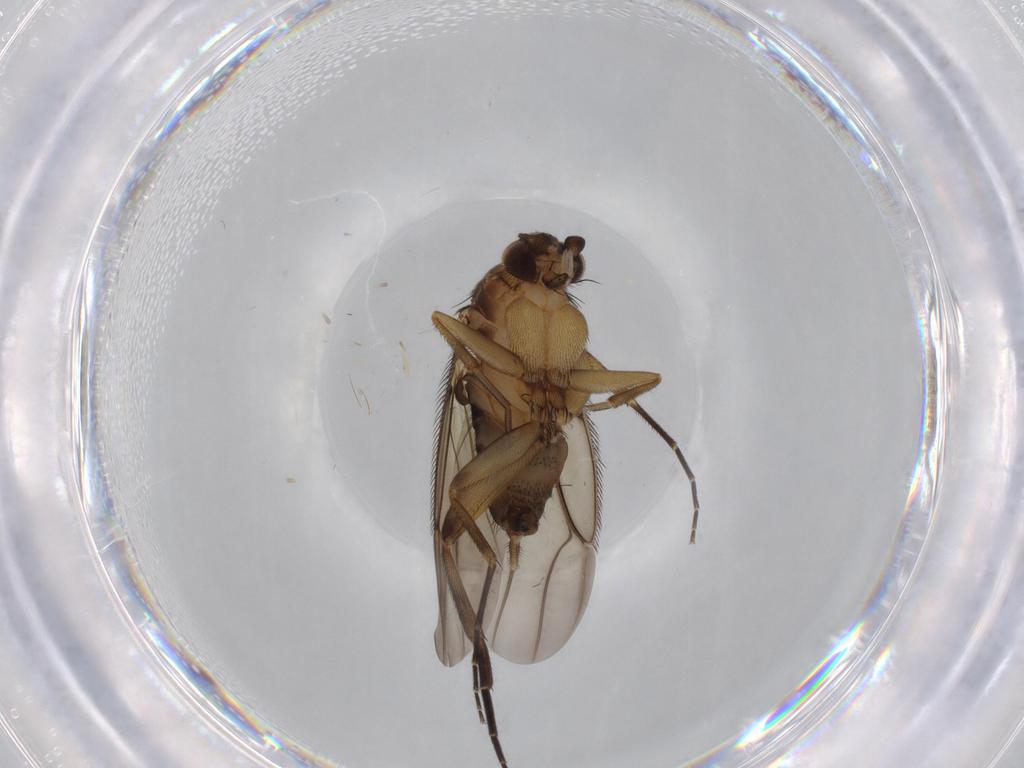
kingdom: Animalia
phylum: Arthropoda
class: Insecta
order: Diptera
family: Phoridae
